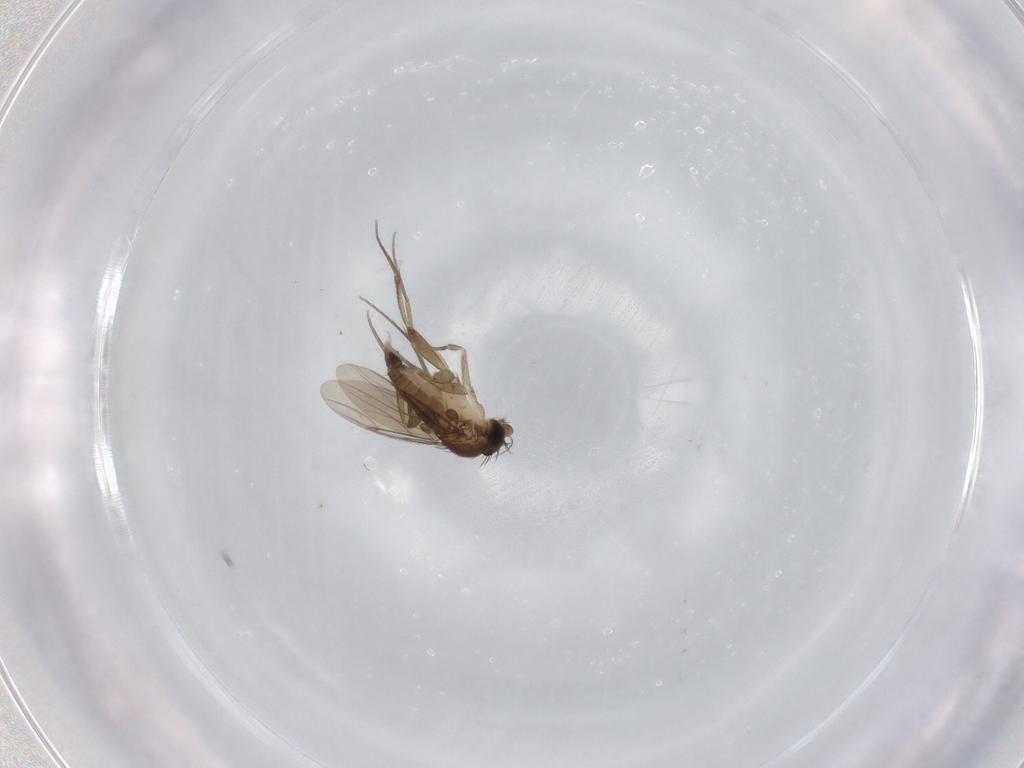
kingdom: Animalia
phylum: Arthropoda
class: Insecta
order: Diptera
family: Phoridae
